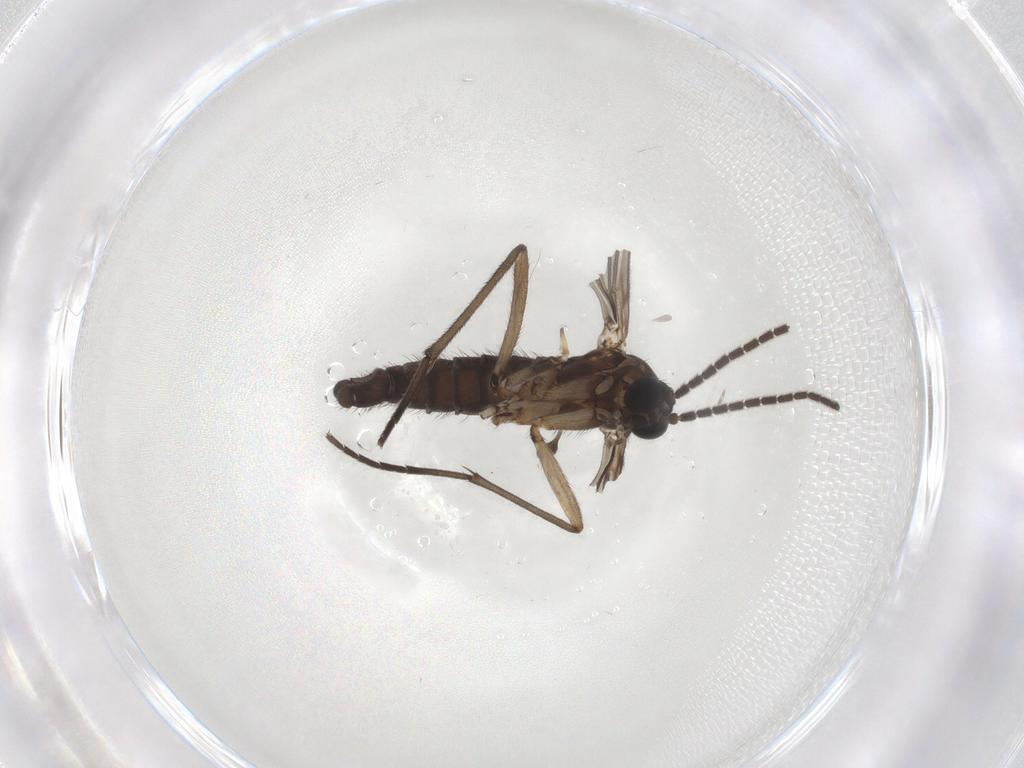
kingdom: Animalia
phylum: Arthropoda
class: Insecta
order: Diptera
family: Sciaridae
